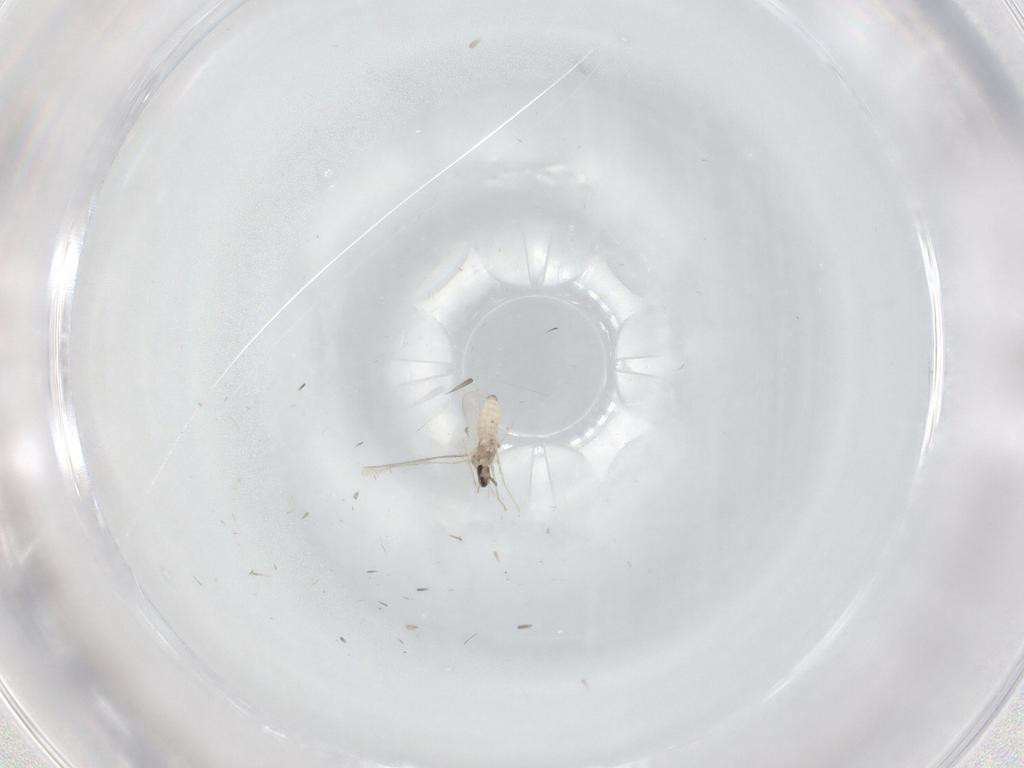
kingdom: Animalia
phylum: Arthropoda
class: Insecta
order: Diptera
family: Cecidomyiidae
